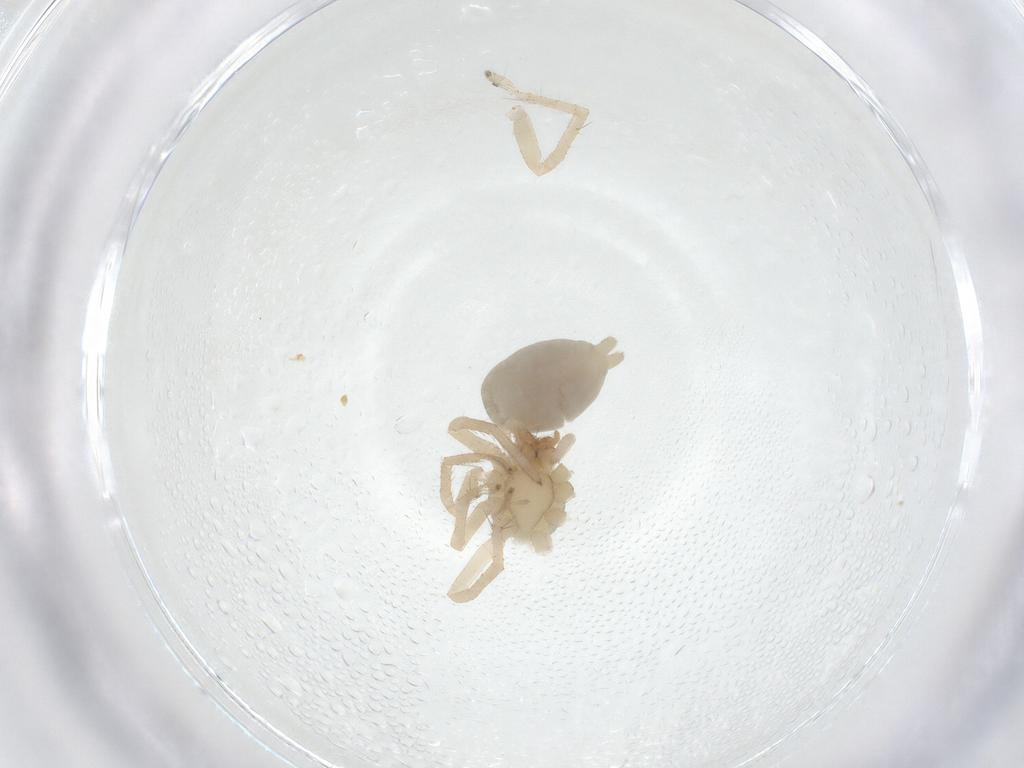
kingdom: Animalia
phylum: Arthropoda
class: Arachnida
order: Araneae
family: Clubionidae
